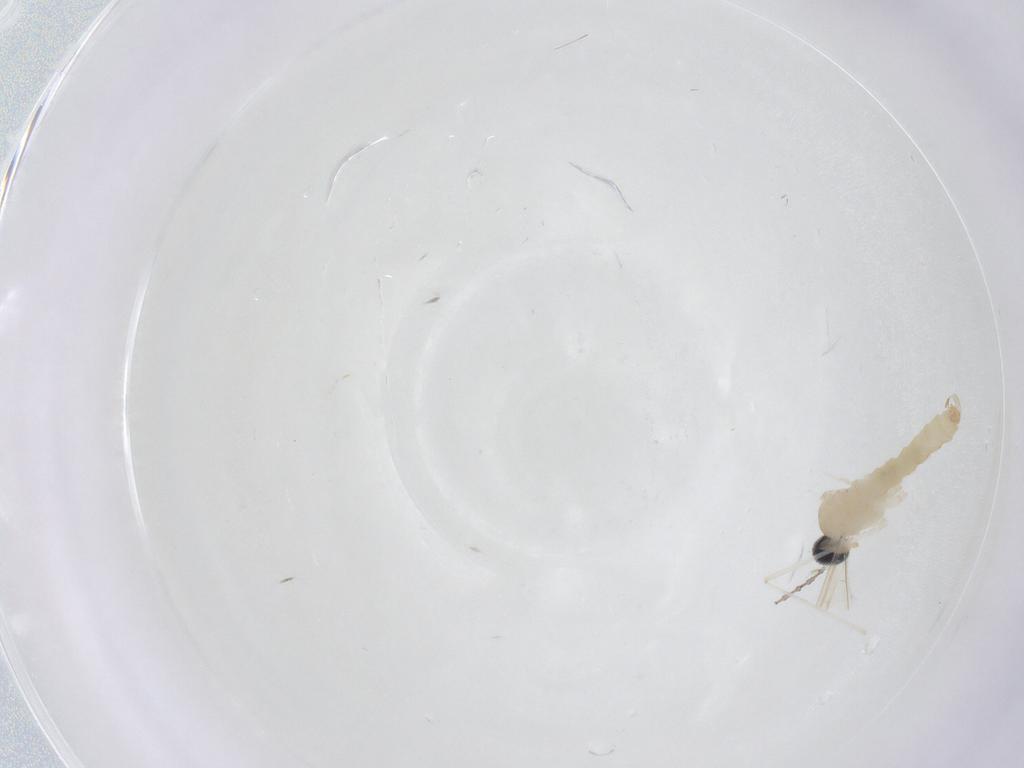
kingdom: Animalia
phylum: Arthropoda
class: Insecta
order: Diptera
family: Cecidomyiidae
